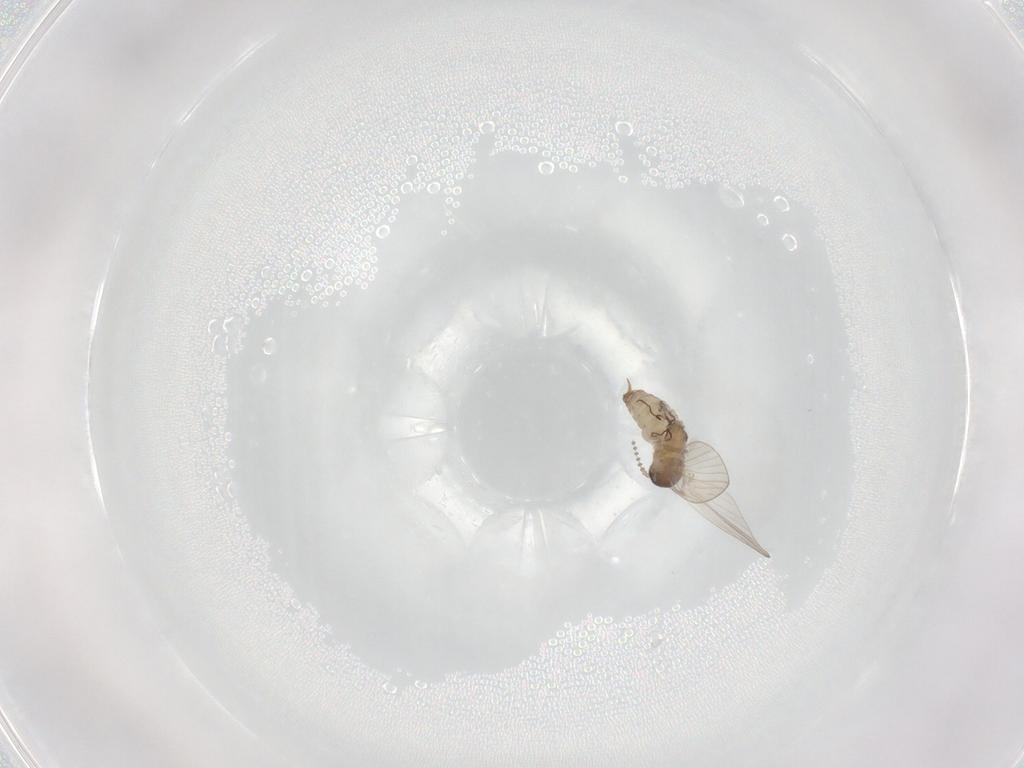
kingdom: Animalia
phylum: Arthropoda
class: Insecta
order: Diptera
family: Psychodidae
